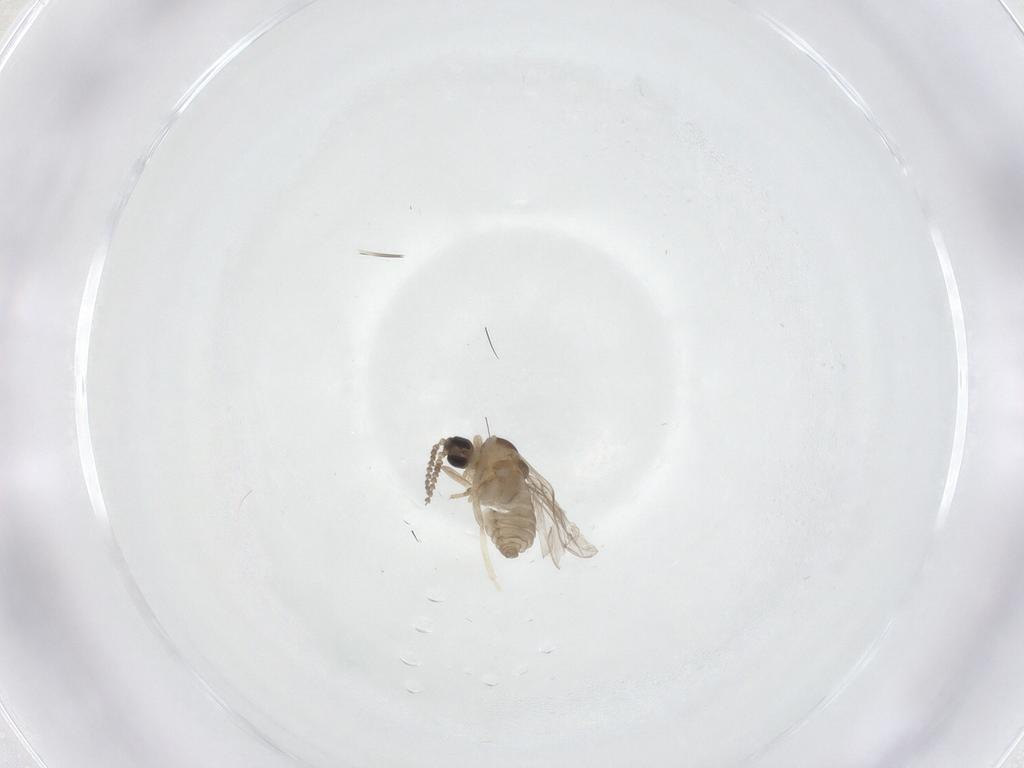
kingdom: Animalia
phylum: Arthropoda
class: Insecta
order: Diptera
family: Cecidomyiidae
